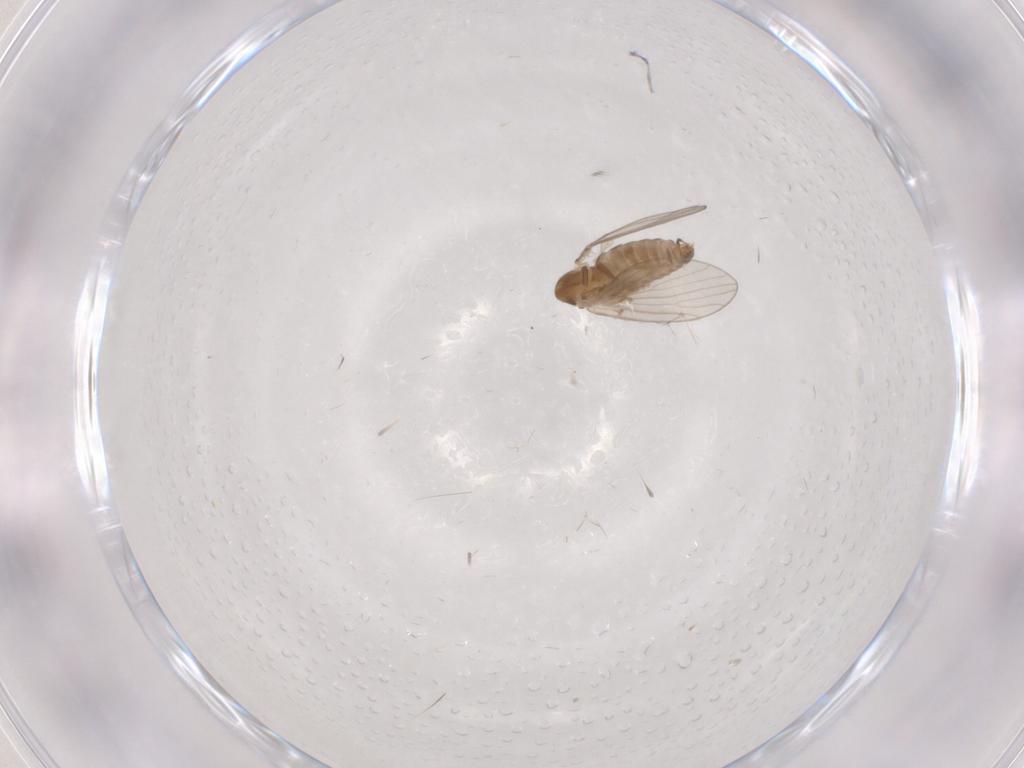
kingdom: Animalia
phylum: Arthropoda
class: Insecta
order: Diptera
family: Psychodidae
